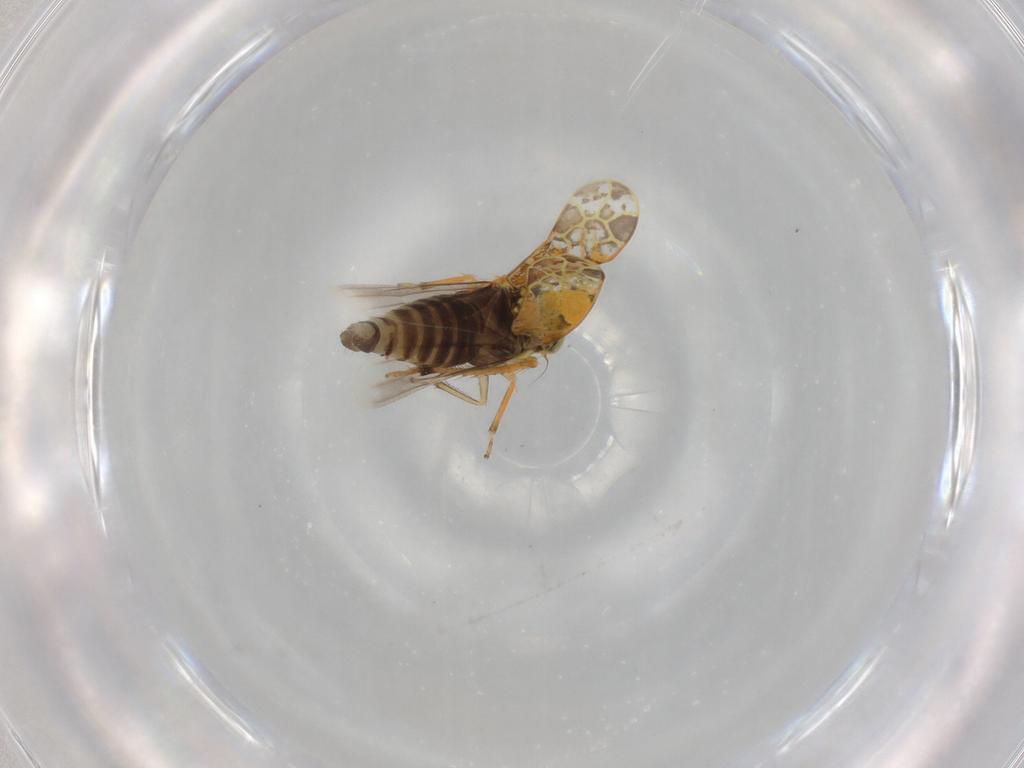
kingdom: Animalia
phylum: Arthropoda
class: Insecta
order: Hemiptera
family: Cicadellidae
